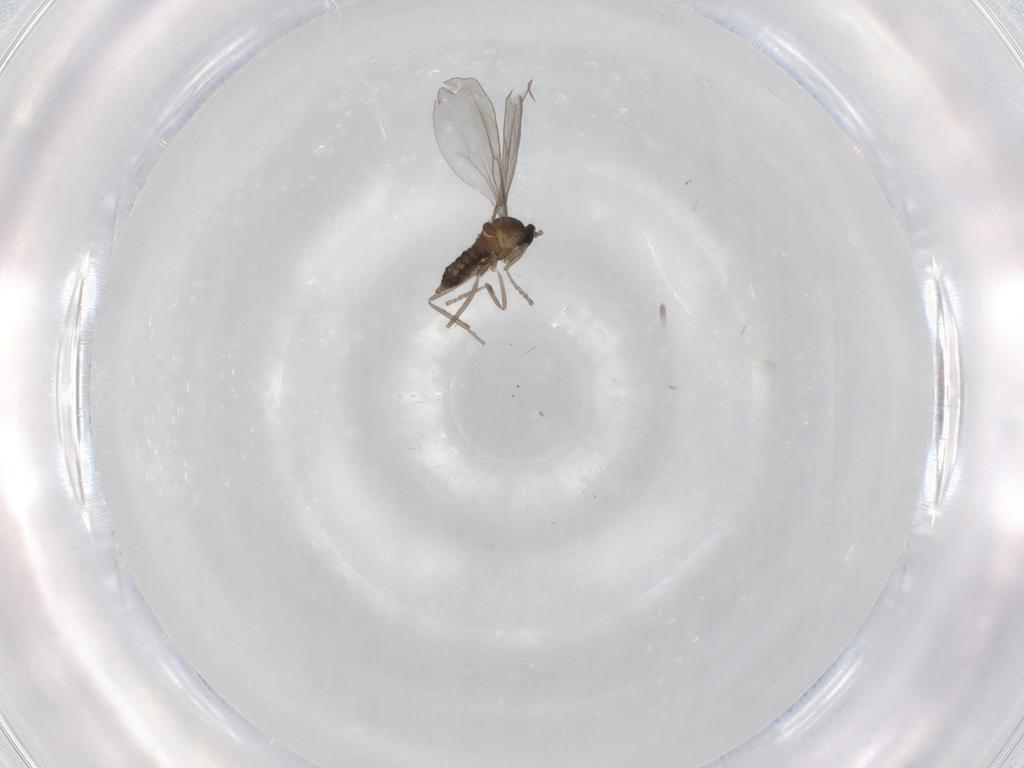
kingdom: Animalia
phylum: Arthropoda
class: Insecta
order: Diptera
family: Cecidomyiidae
